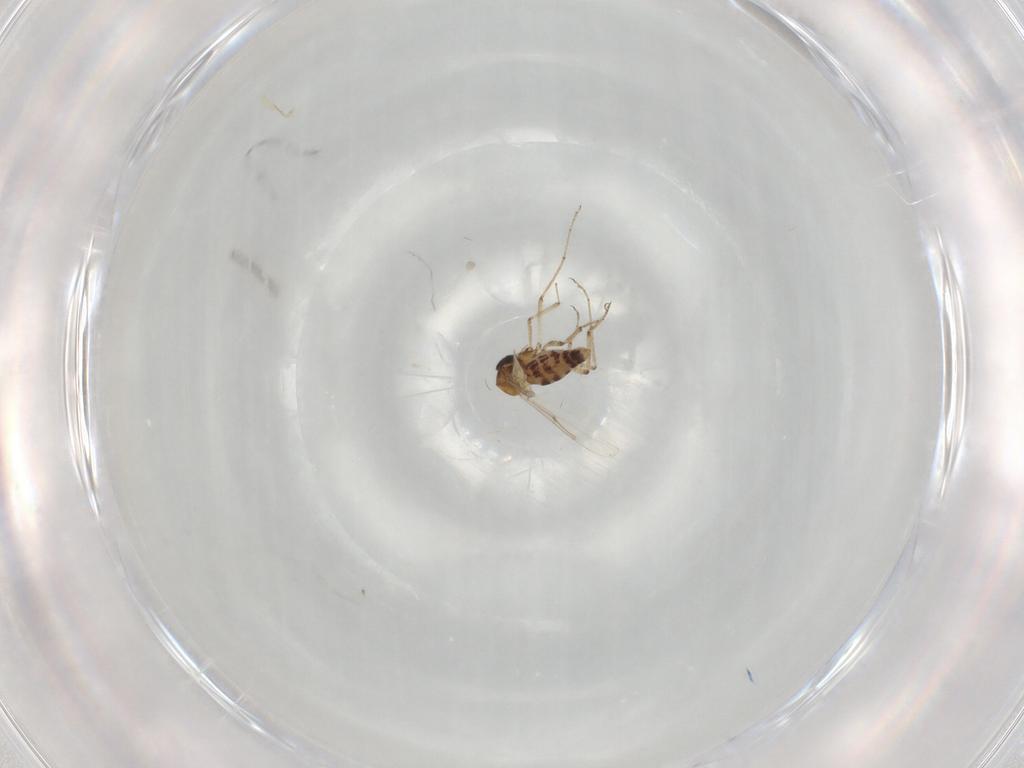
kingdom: Animalia
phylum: Arthropoda
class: Insecta
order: Diptera
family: Ceratopogonidae
